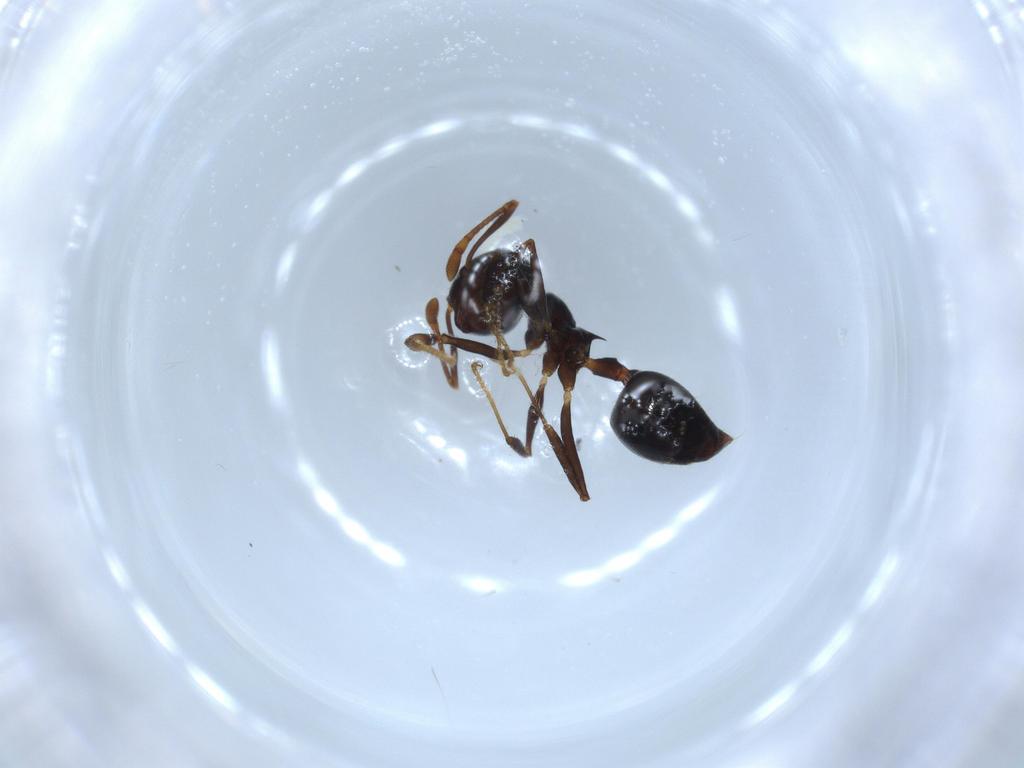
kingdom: Animalia
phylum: Arthropoda
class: Insecta
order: Hymenoptera
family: Formicidae
